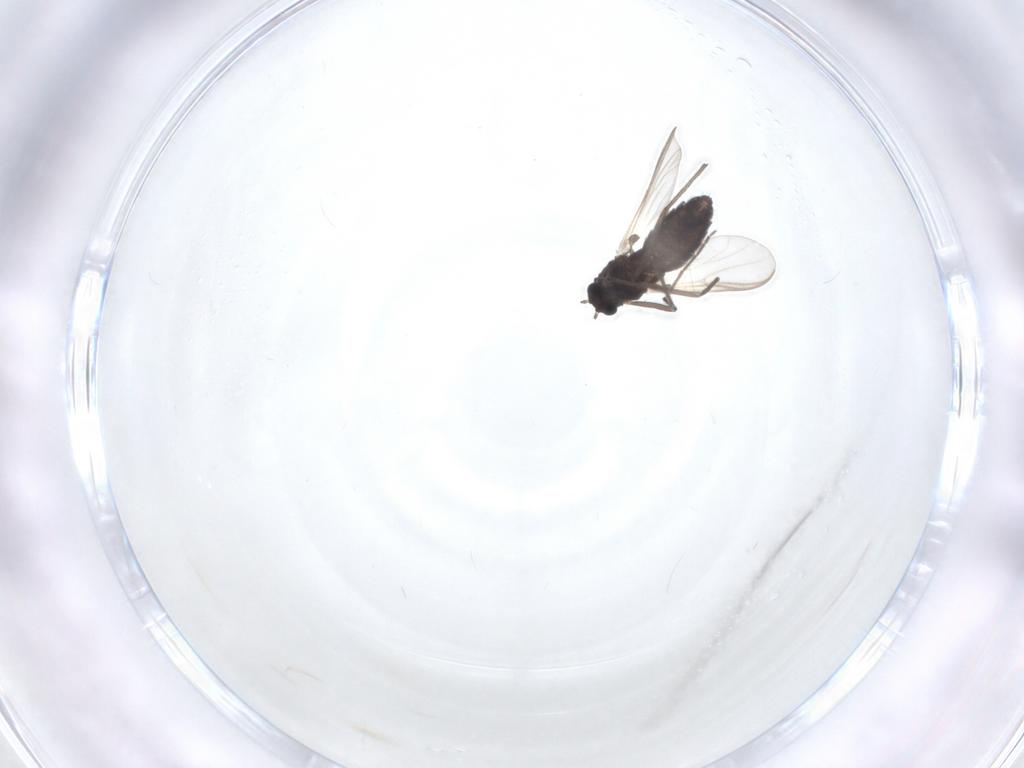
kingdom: Animalia
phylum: Arthropoda
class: Insecta
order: Diptera
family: Chironomidae
